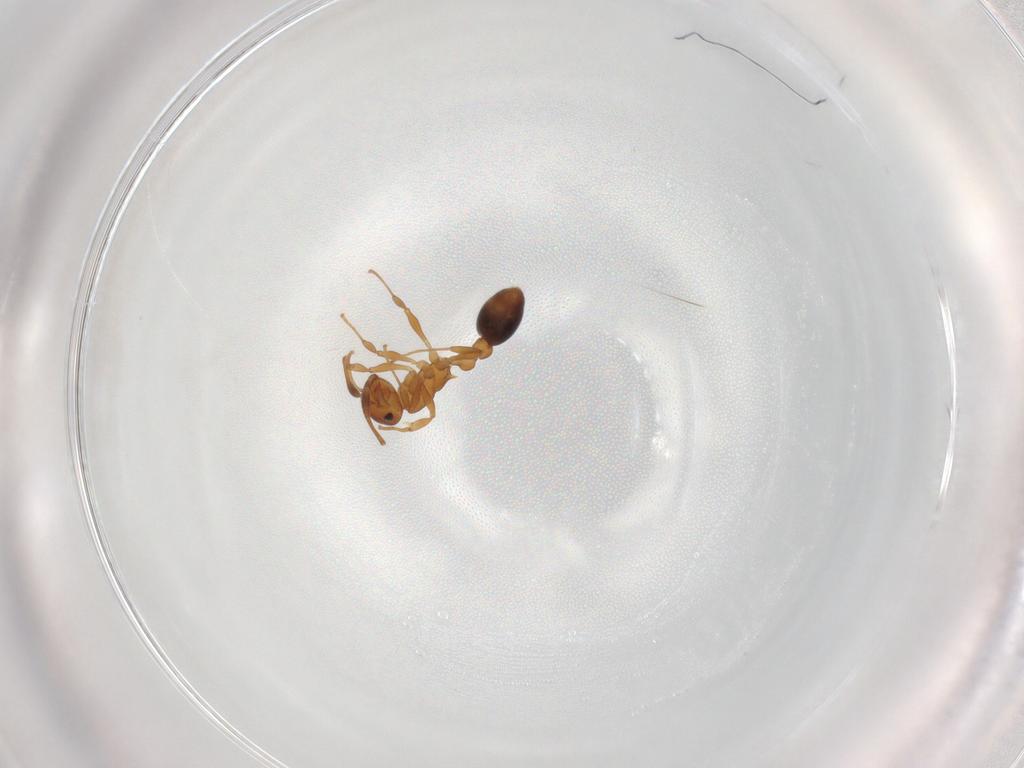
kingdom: Animalia
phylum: Arthropoda
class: Insecta
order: Hymenoptera
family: Formicidae
